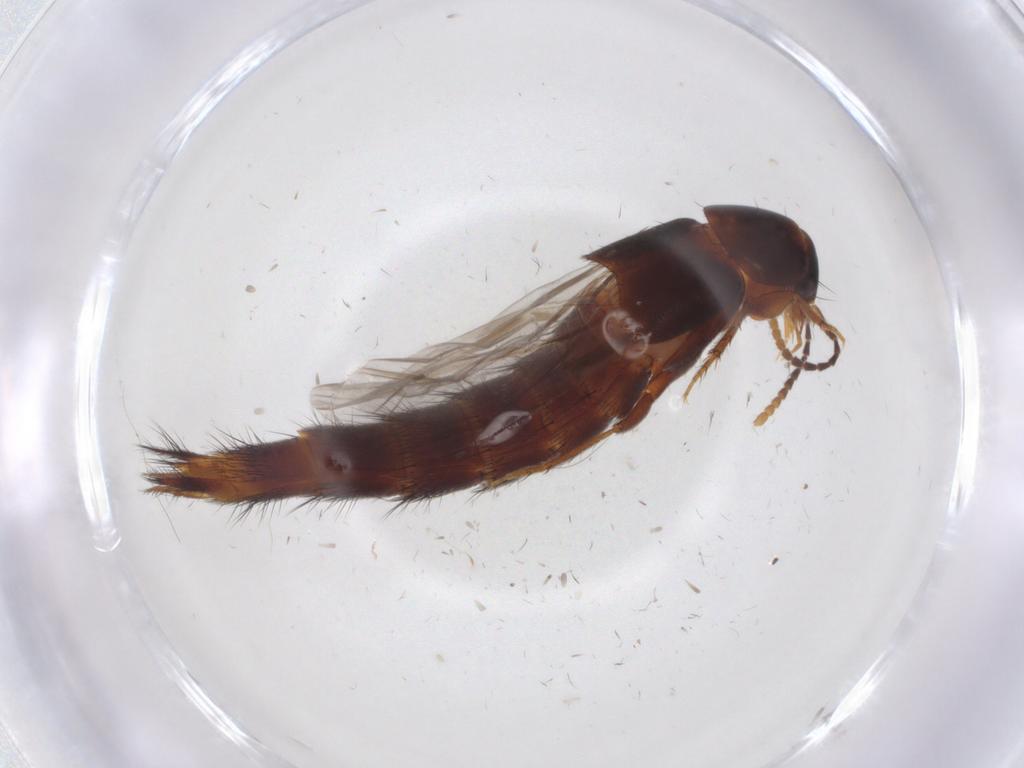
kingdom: Animalia
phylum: Arthropoda
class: Insecta
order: Coleoptera
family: Staphylinidae
